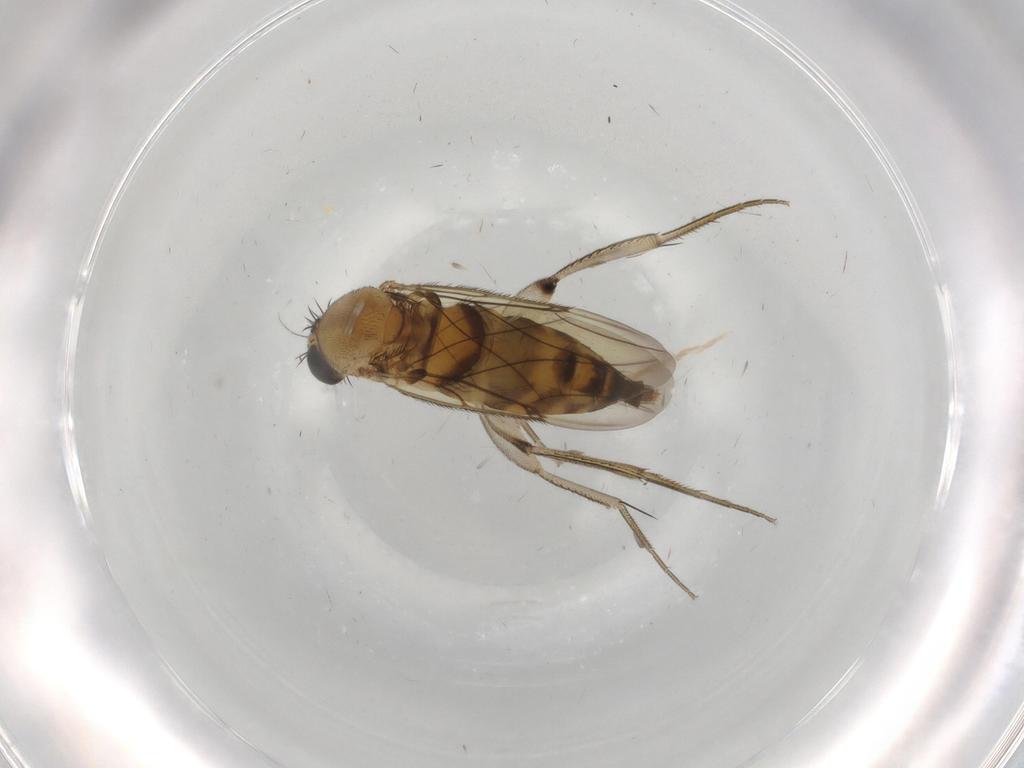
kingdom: Animalia
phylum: Arthropoda
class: Insecta
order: Diptera
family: Phoridae
